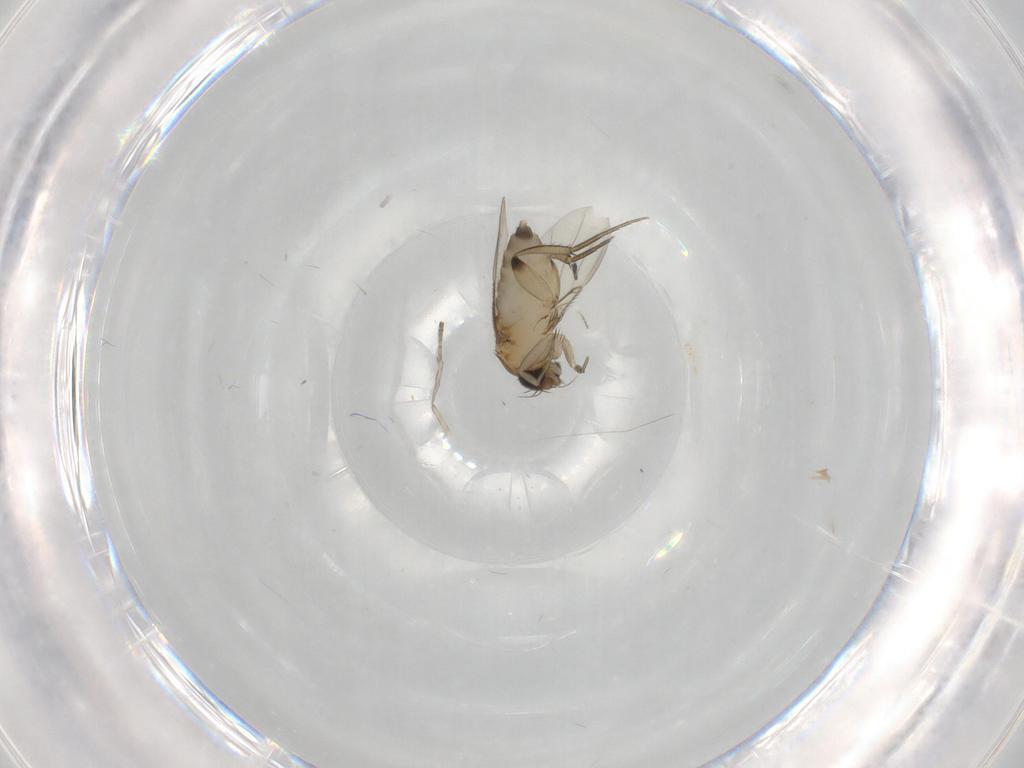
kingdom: Animalia
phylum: Arthropoda
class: Insecta
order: Diptera
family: Phoridae
